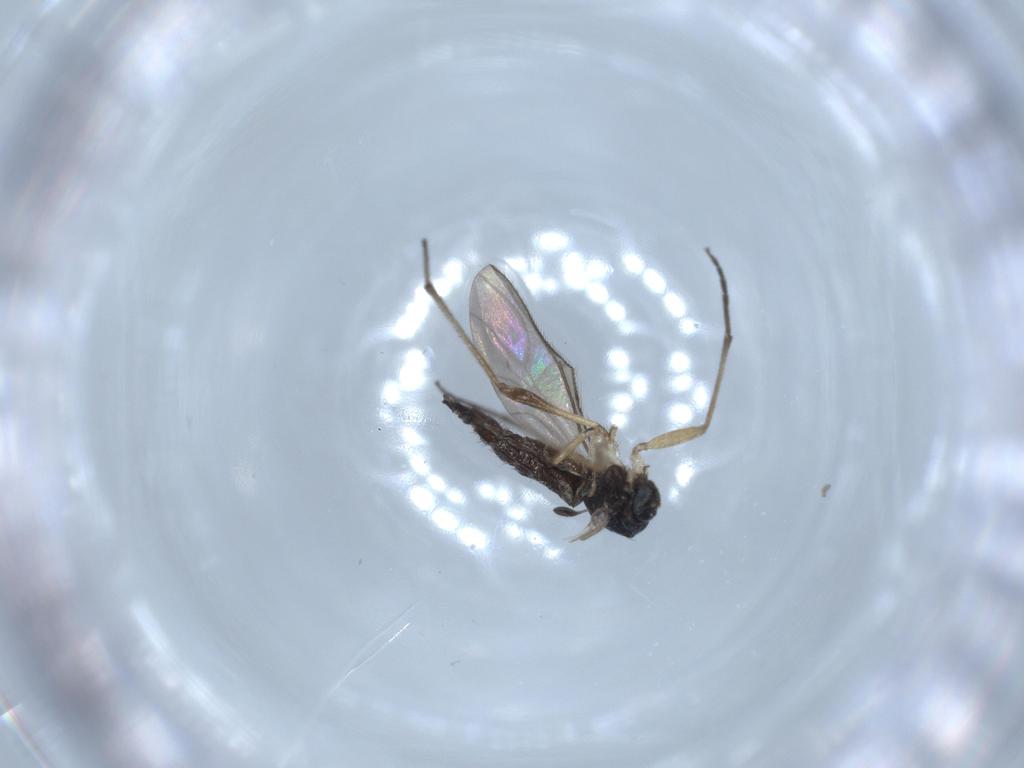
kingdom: Animalia
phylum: Arthropoda
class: Insecta
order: Diptera
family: Sciaridae
